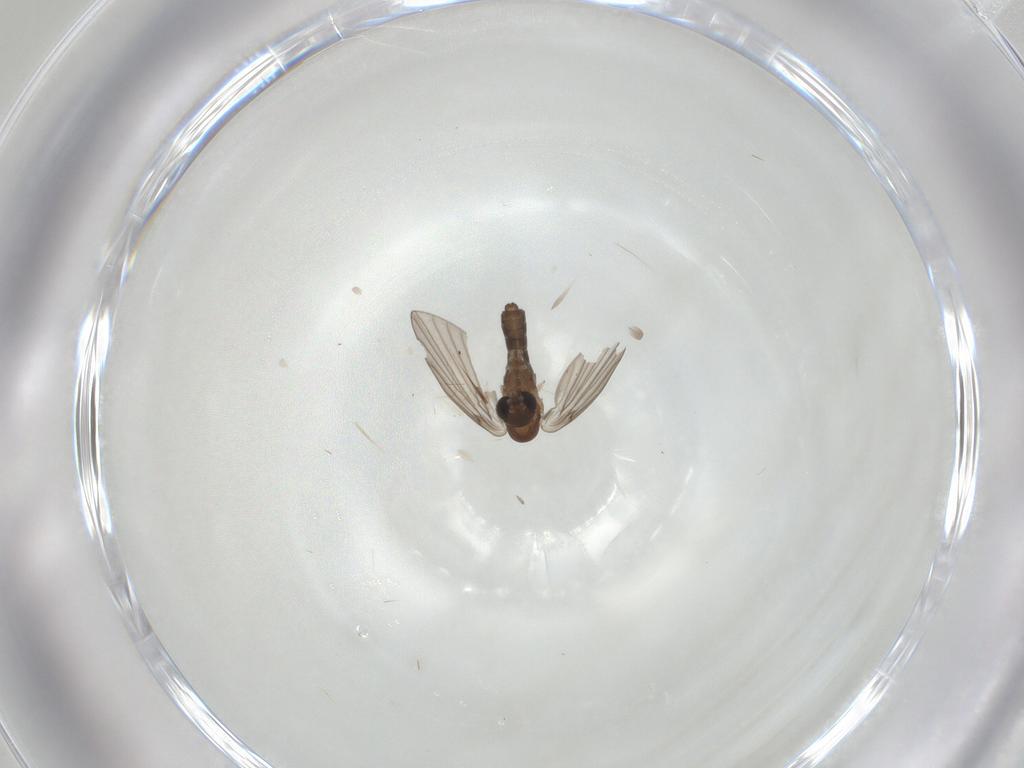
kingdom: Animalia
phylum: Arthropoda
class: Insecta
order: Diptera
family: Psychodidae
